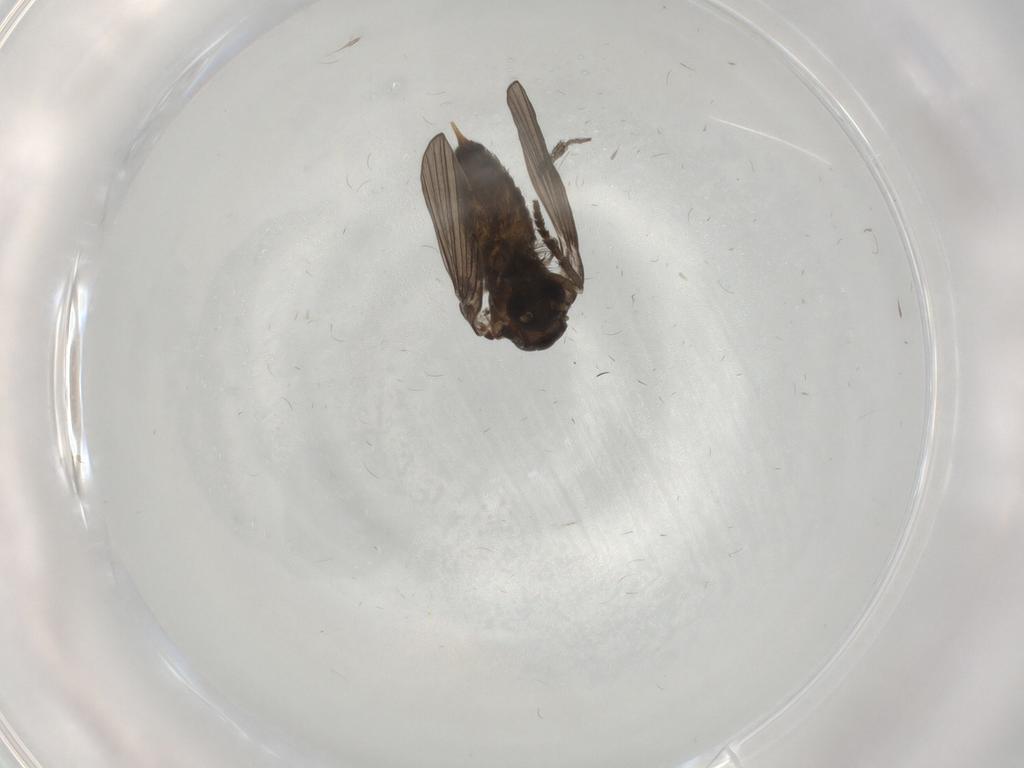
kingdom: Animalia
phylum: Arthropoda
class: Insecta
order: Diptera
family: Psychodidae
